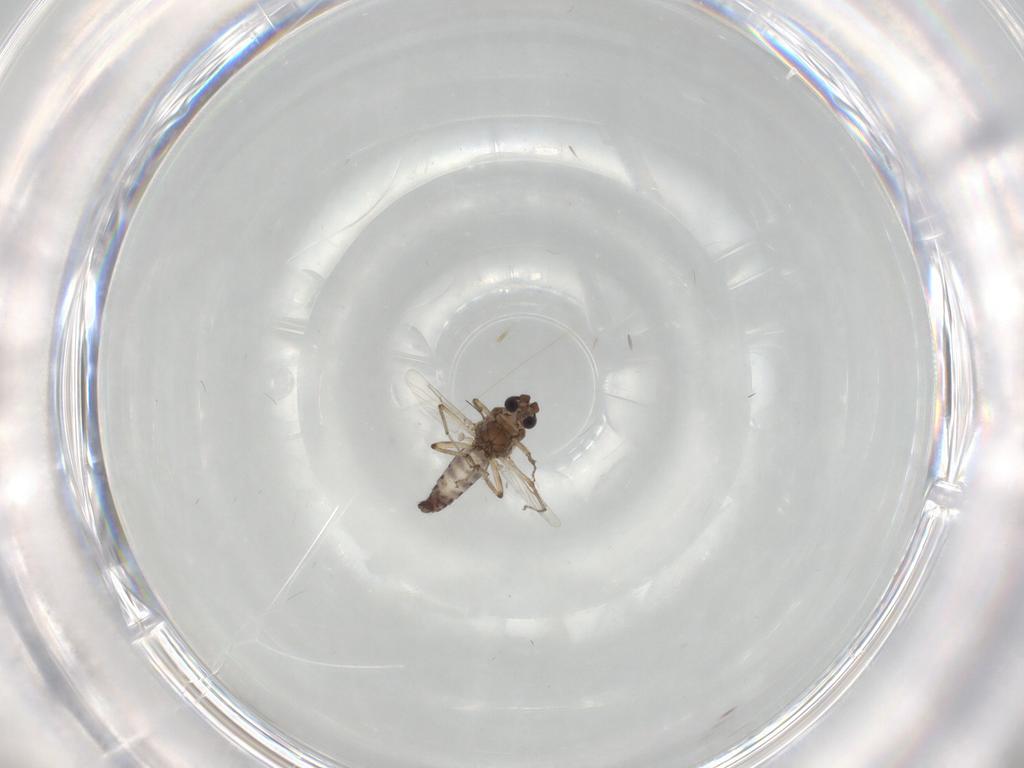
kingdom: Animalia
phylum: Arthropoda
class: Insecta
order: Diptera
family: Ceratopogonidae
